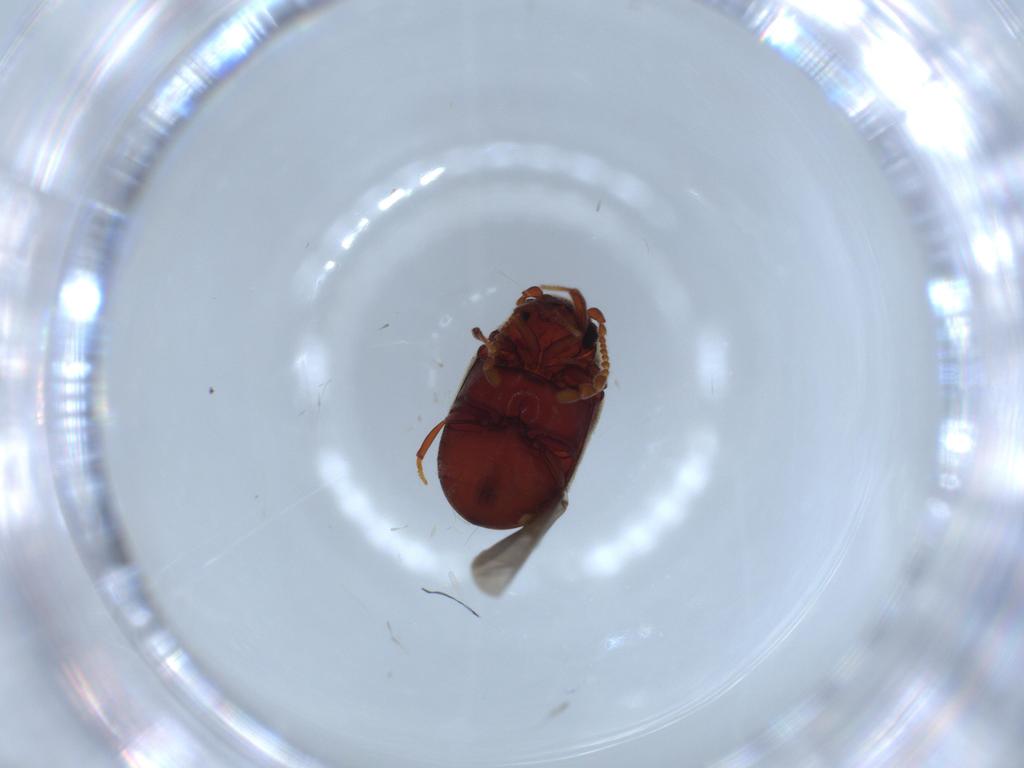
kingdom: Animalia
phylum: Arthropoda
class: Insecta
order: Coleoptera
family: Ptinidae
